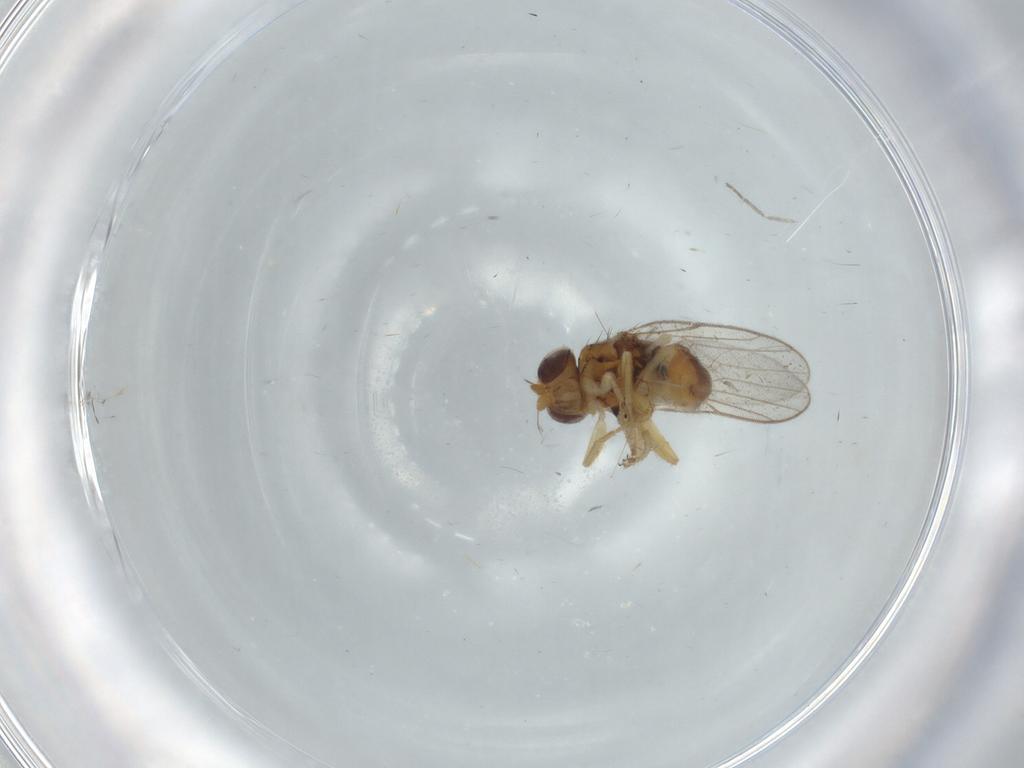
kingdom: Animalia
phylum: Arthropoda
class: Insecta
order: Diptera
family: Chloropidae
